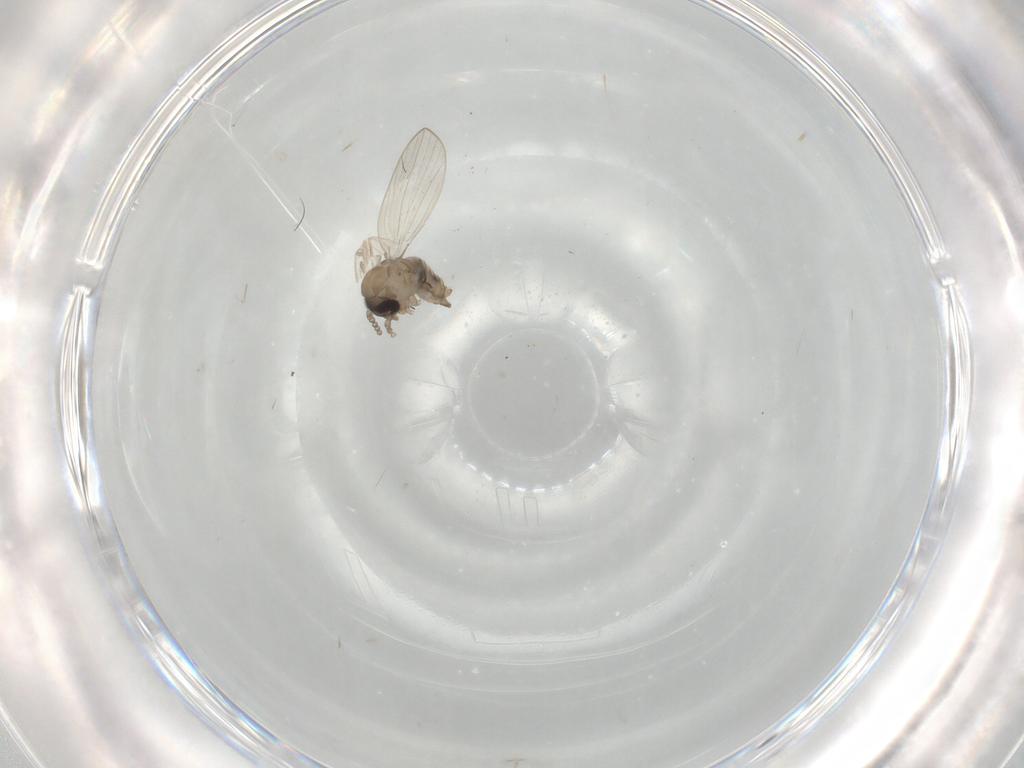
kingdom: Animalia
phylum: Arthropoda
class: Insecta
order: Diptera
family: Psychodidae
